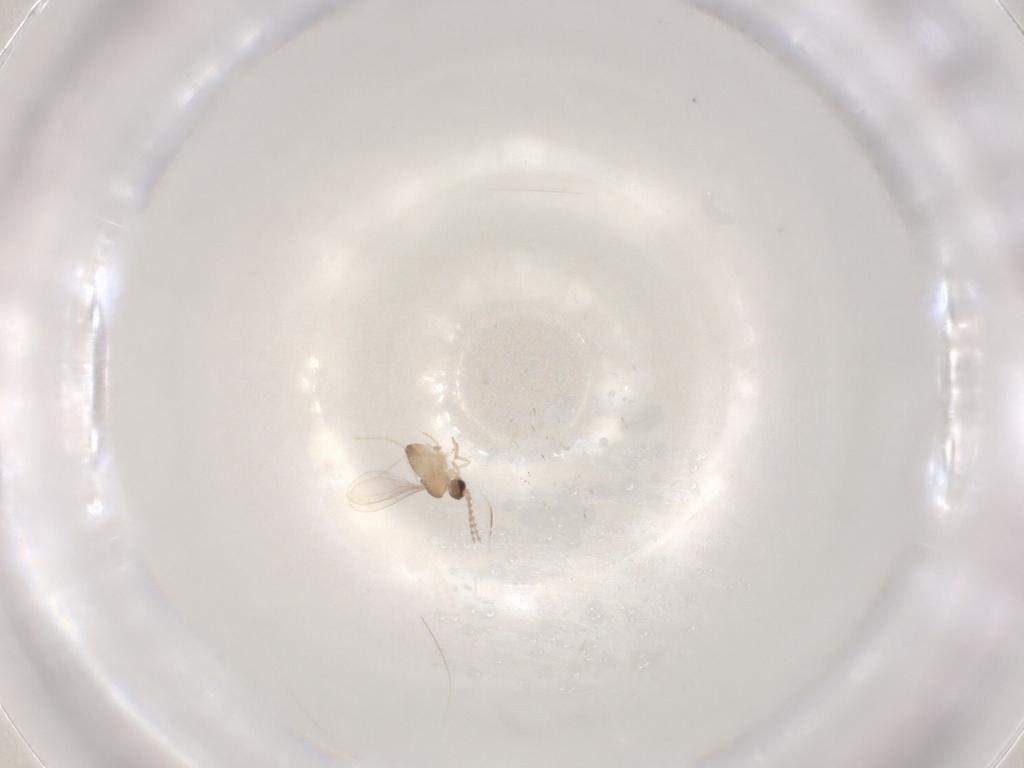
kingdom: Animalia
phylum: Arthropoda
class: Insecta
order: Diptera
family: Cecidomyiidae
